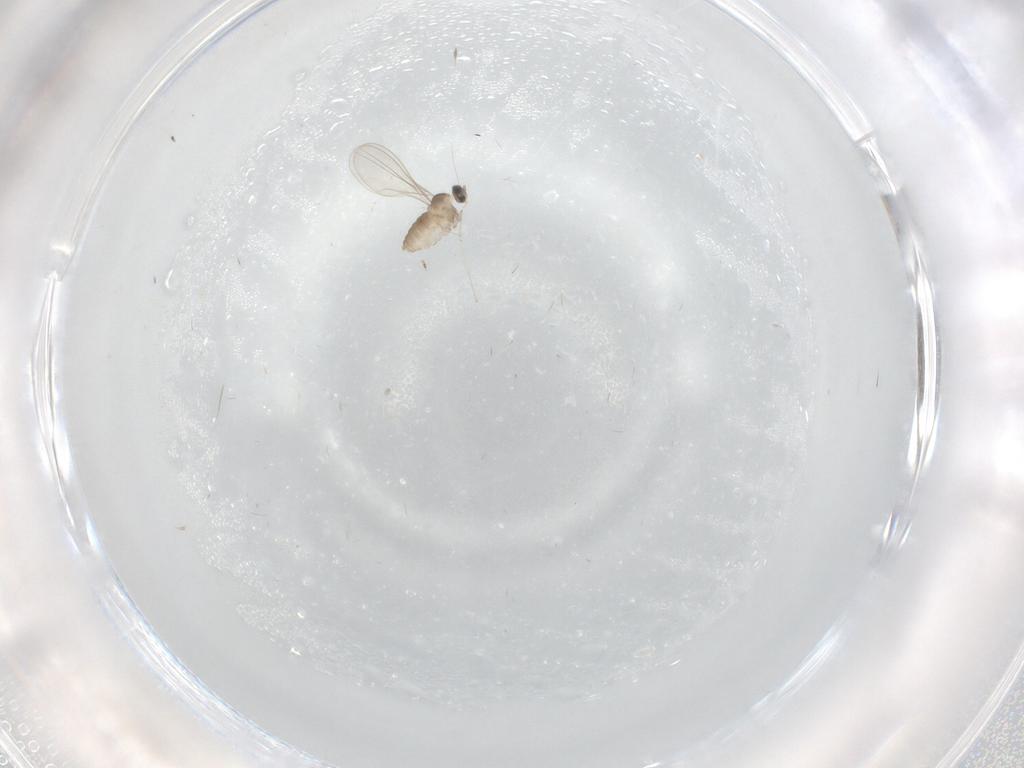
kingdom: Animalia
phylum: Arthropoda
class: Insecta
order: Diptera
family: Cecidomyiidae
